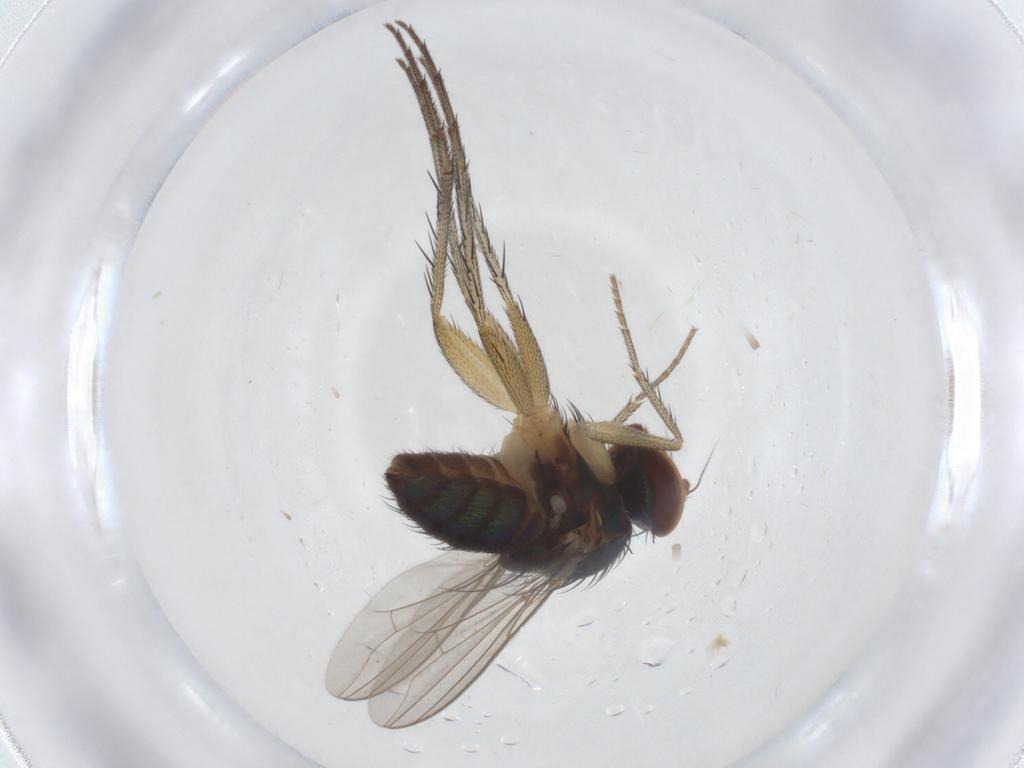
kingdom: Animalia
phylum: Arthropoda
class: Insecta
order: Diptera
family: Dolichopodidae
